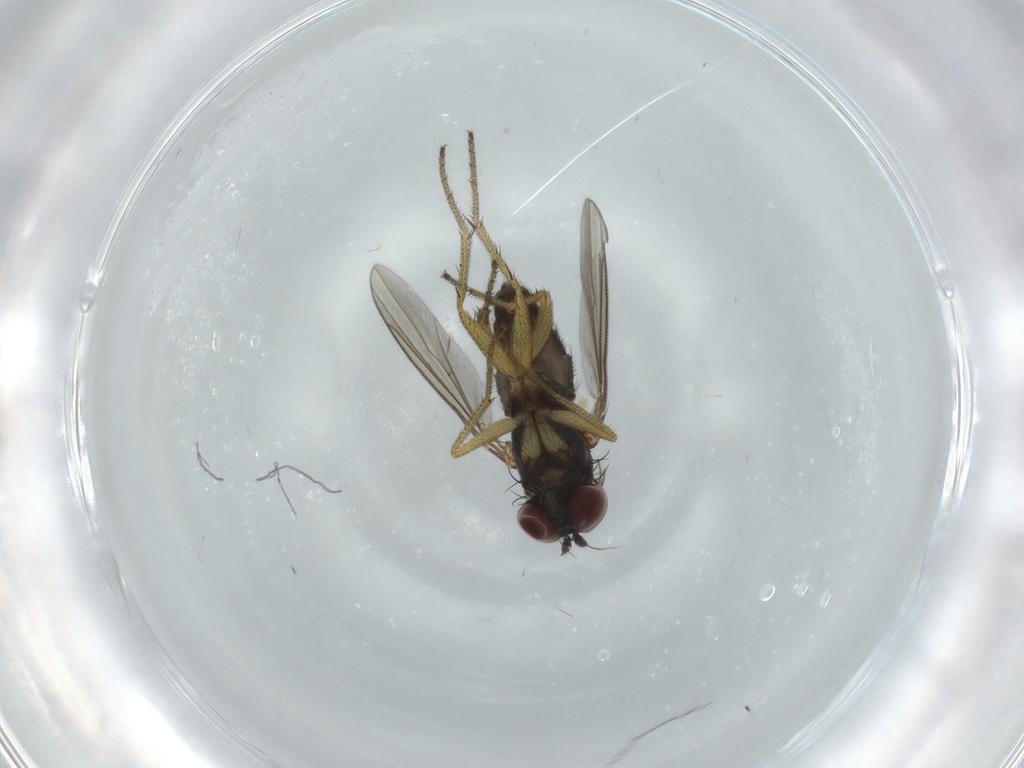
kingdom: Animalia
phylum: Arthropoda
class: Insecta
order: Diptera
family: Dolichopodidae
